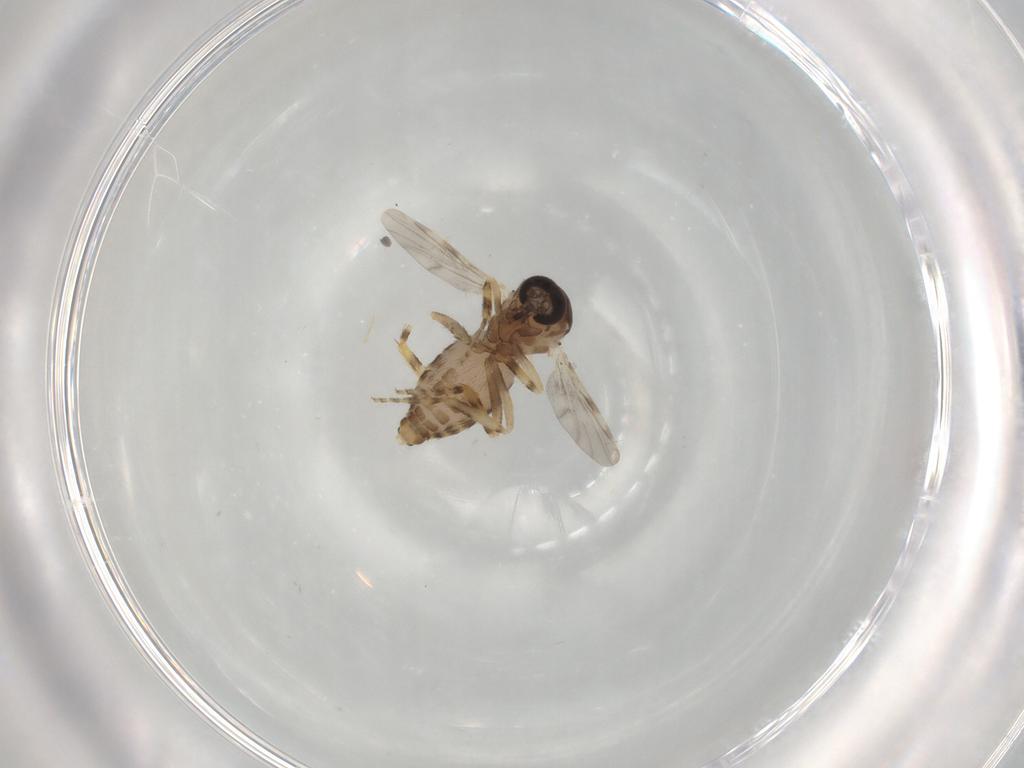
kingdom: Animalia
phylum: Arthropoda
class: Insecta
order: Diptera
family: Ceratopogonidae
